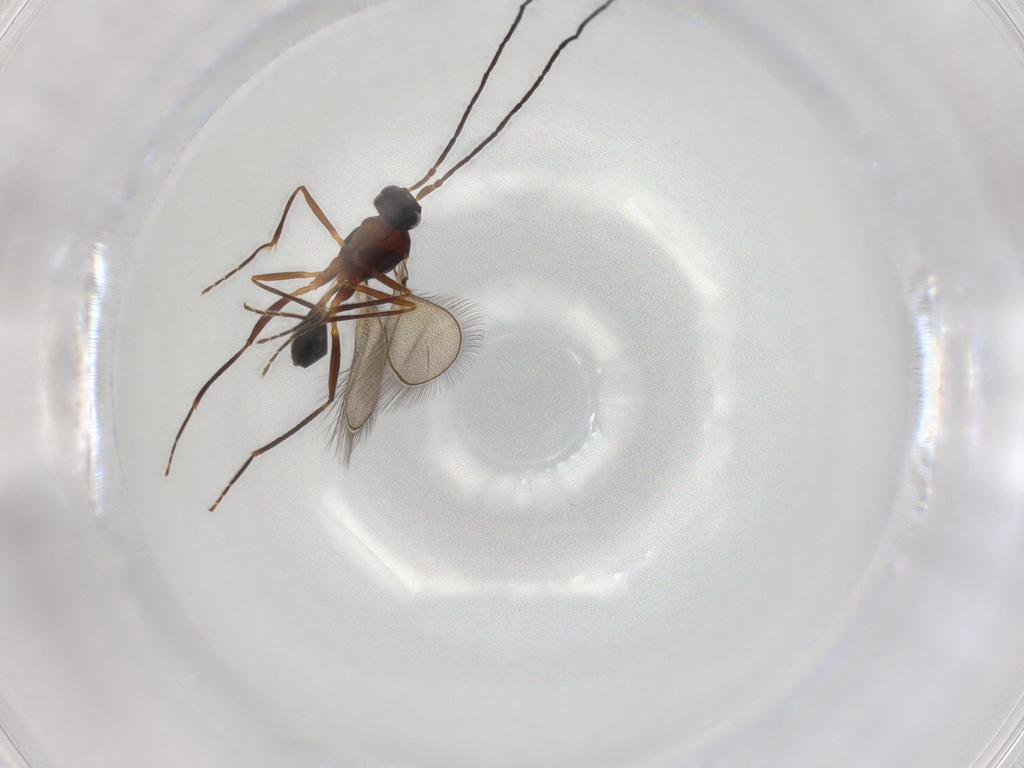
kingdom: Animalia
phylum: Arthropoda
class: Insecta
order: Hymenoptera
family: Mymaridae
